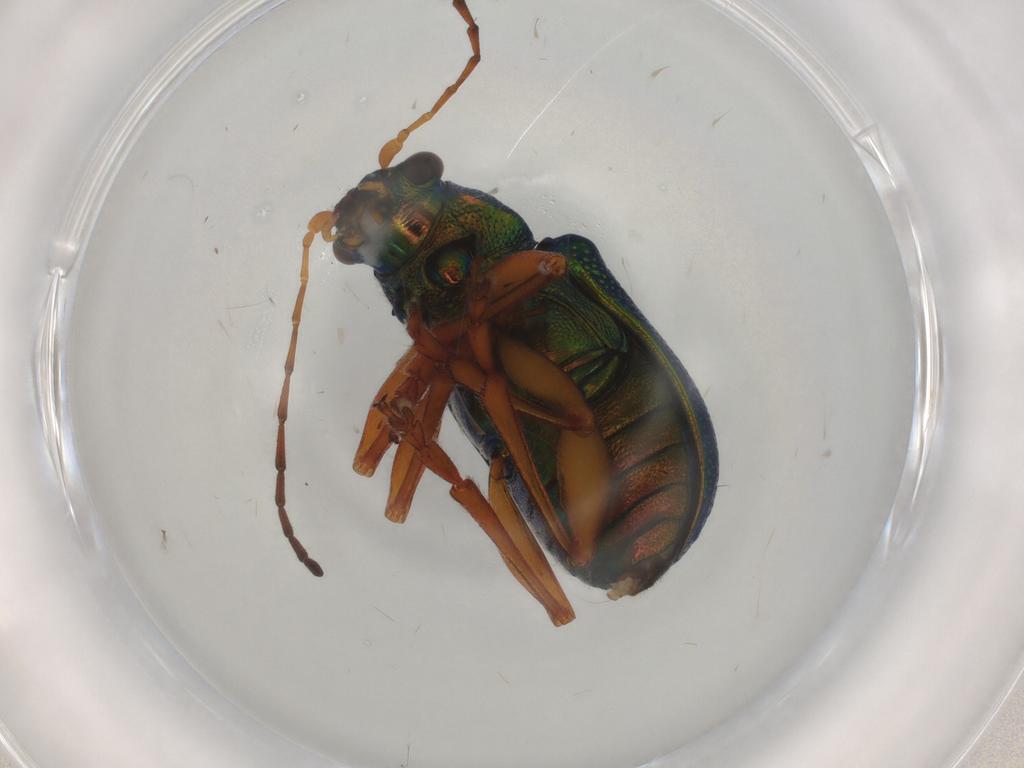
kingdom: Animalia
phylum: Arthropoda
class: Insecta
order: Coleoptera
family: Chrysomelidae
